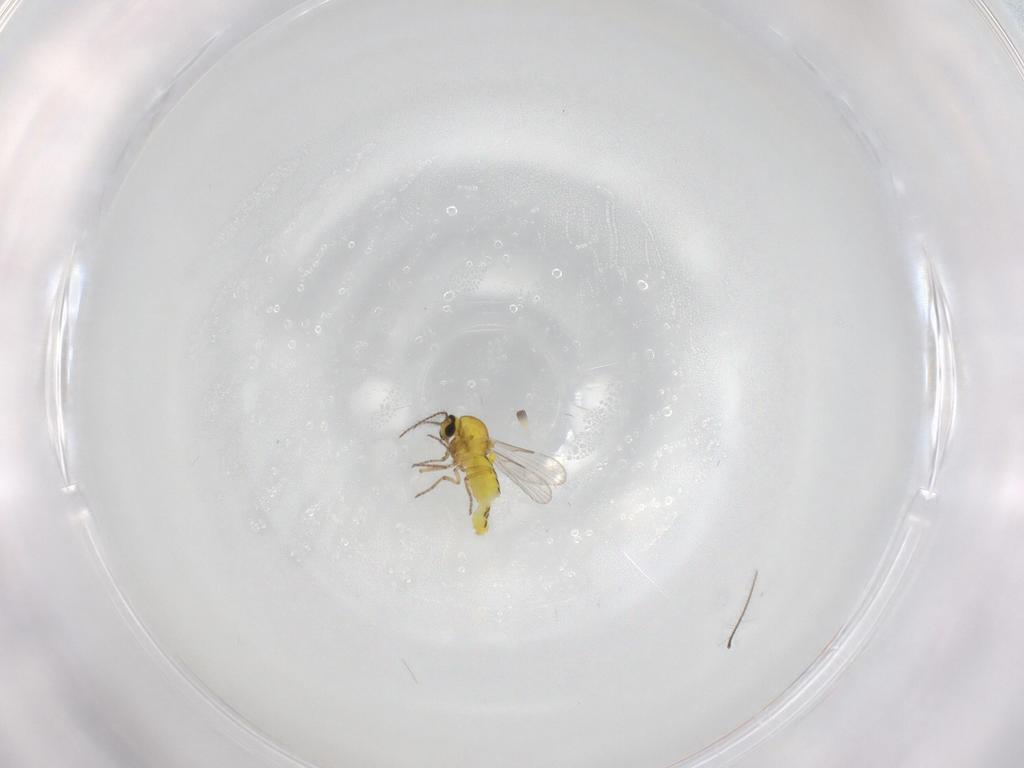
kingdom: Animalia
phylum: Arthropoda
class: Insecta
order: Diptera
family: Ceratopogonidae
